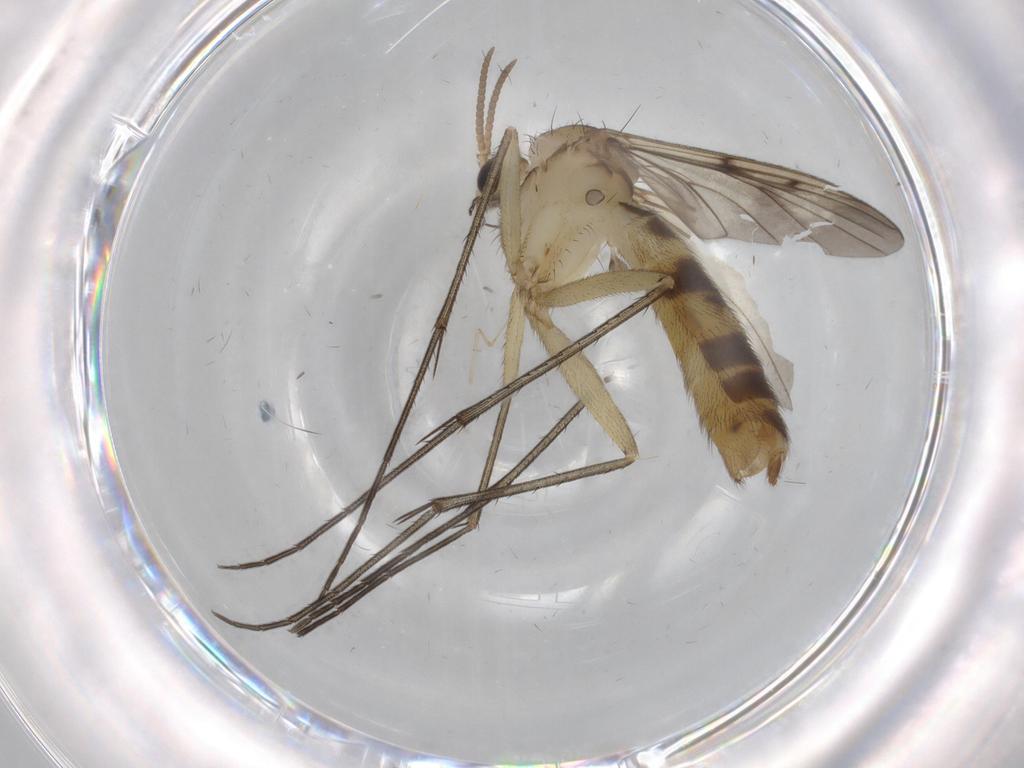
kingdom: Animalia
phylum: Arthropoda
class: Insecta
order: Diptera
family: Mycetophilidae
